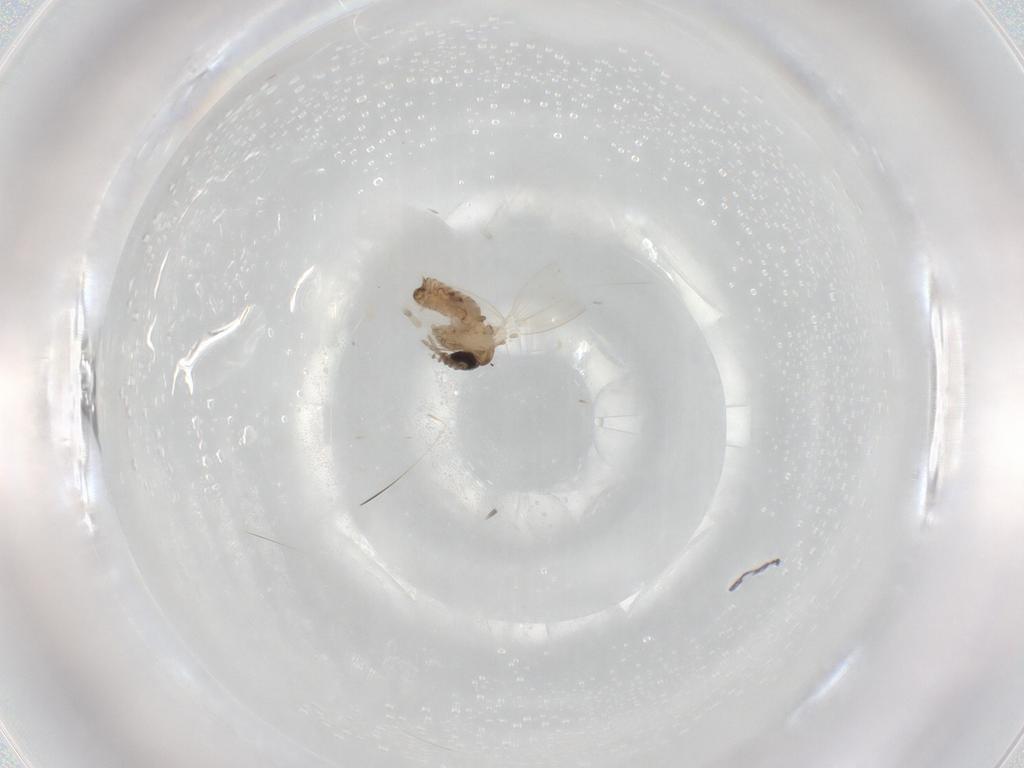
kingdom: Animalia
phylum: Arthropoda
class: Insecta
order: Diptera
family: Psychodidae
